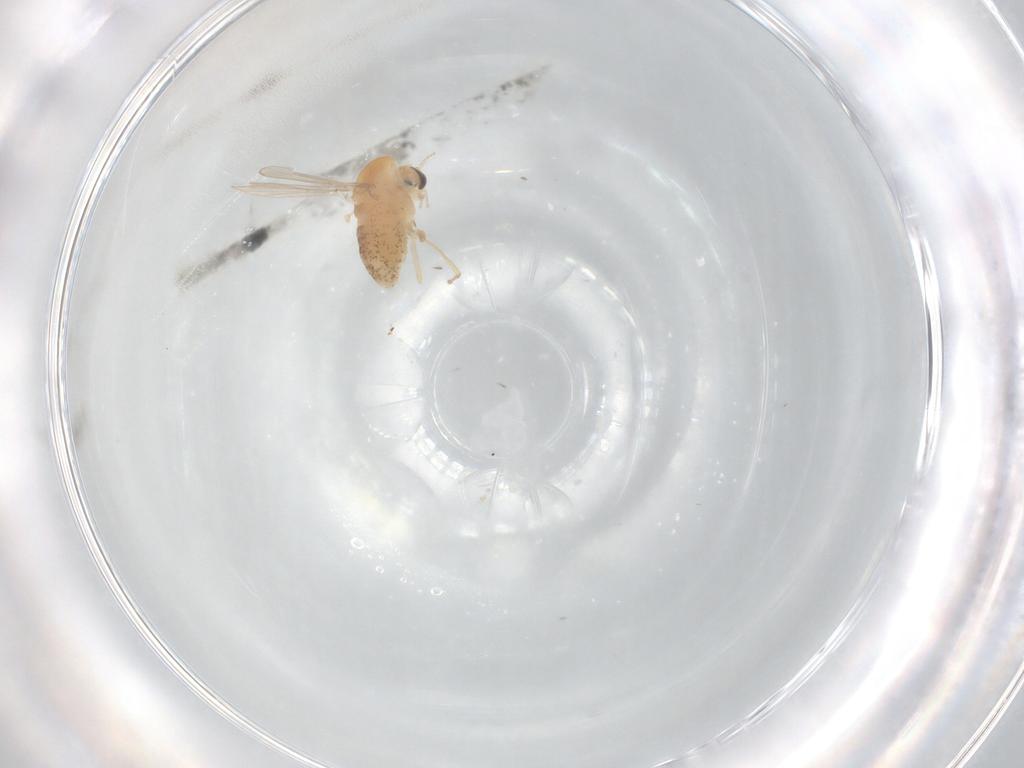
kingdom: Animalia
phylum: Arthropoda
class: Insecta
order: Diptera
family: Chironomidae
